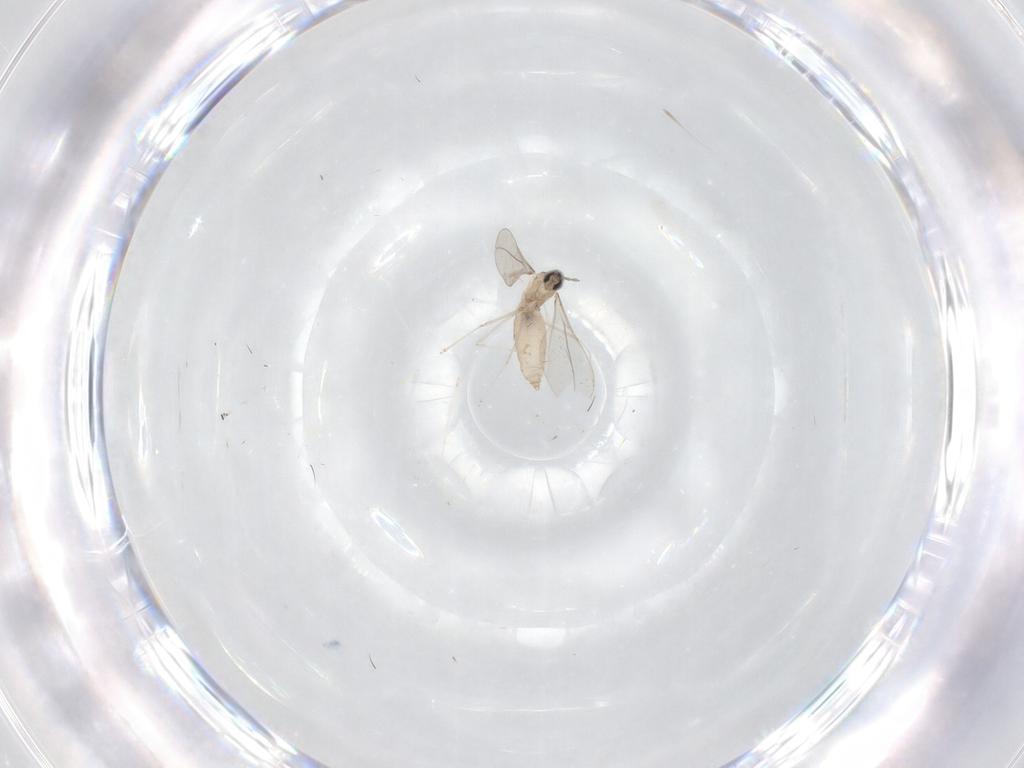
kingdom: Animalia
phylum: Arthropoda
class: Insecta
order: Diptera
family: Cecidomyiidae
